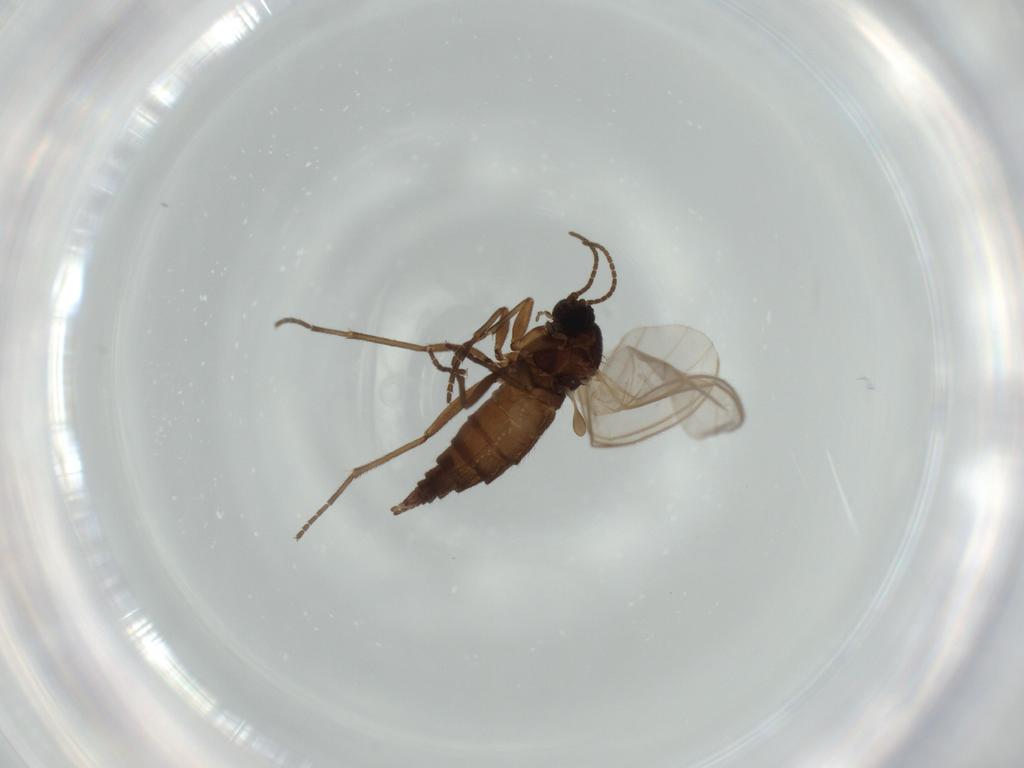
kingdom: Animalia
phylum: Arthropoda
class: Insecta
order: Diptera
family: Sciaridae
